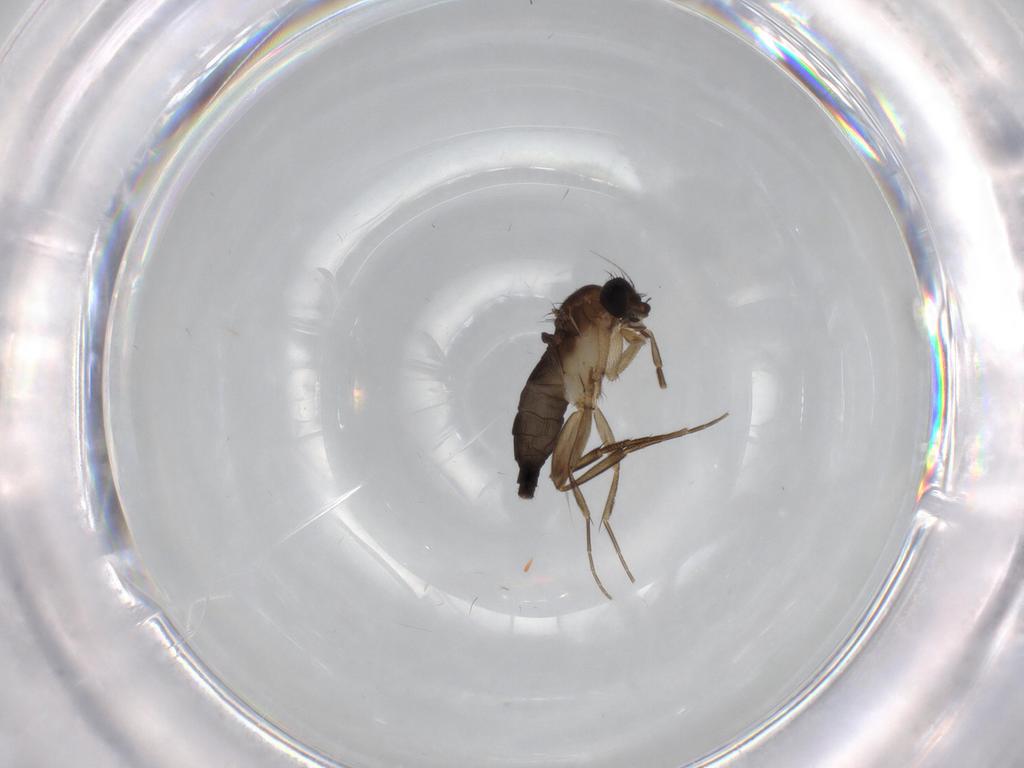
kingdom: Animalia
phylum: Arthropoda
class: Insecta
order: Diptera
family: Phoridae
